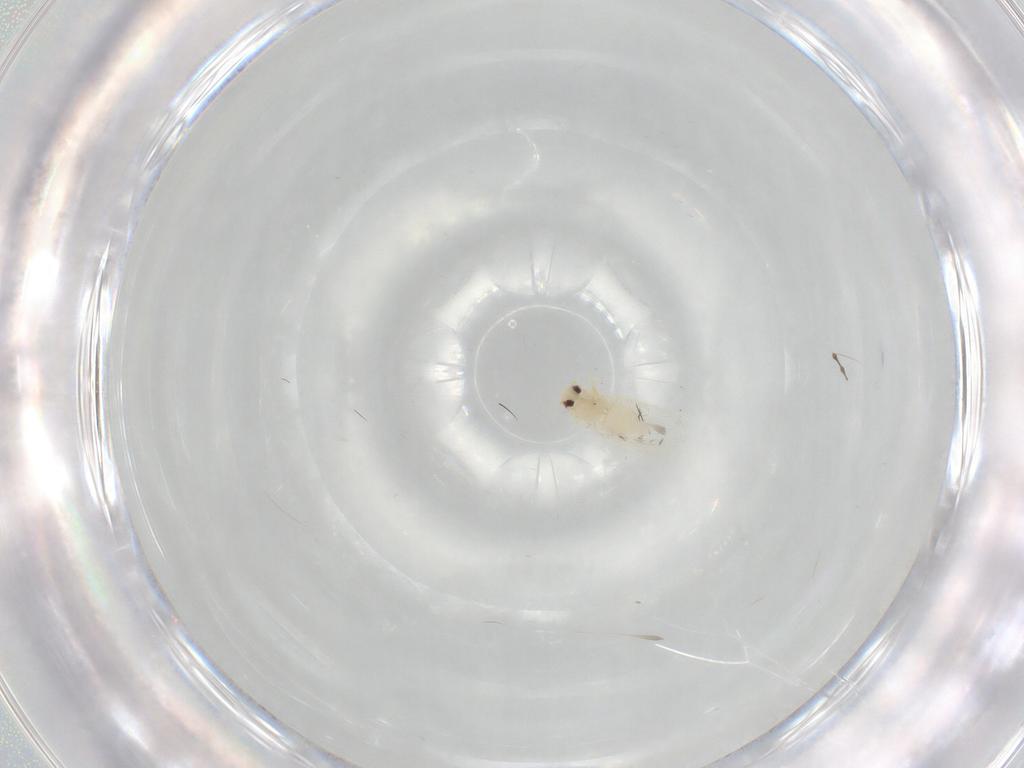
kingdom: Animalia
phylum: Arthropoda
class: Insecta
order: Diptera
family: Chironomidae
